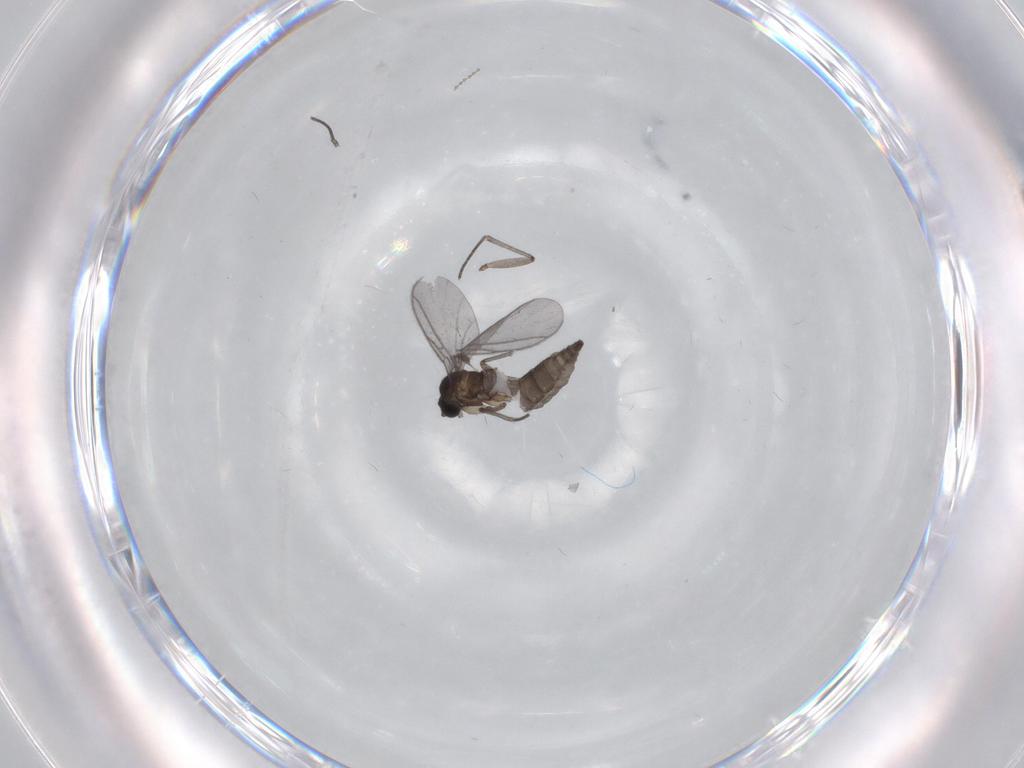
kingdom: Animalia
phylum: Arthropoda
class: Insecta
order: Diptera
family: Cecidomyiidae
